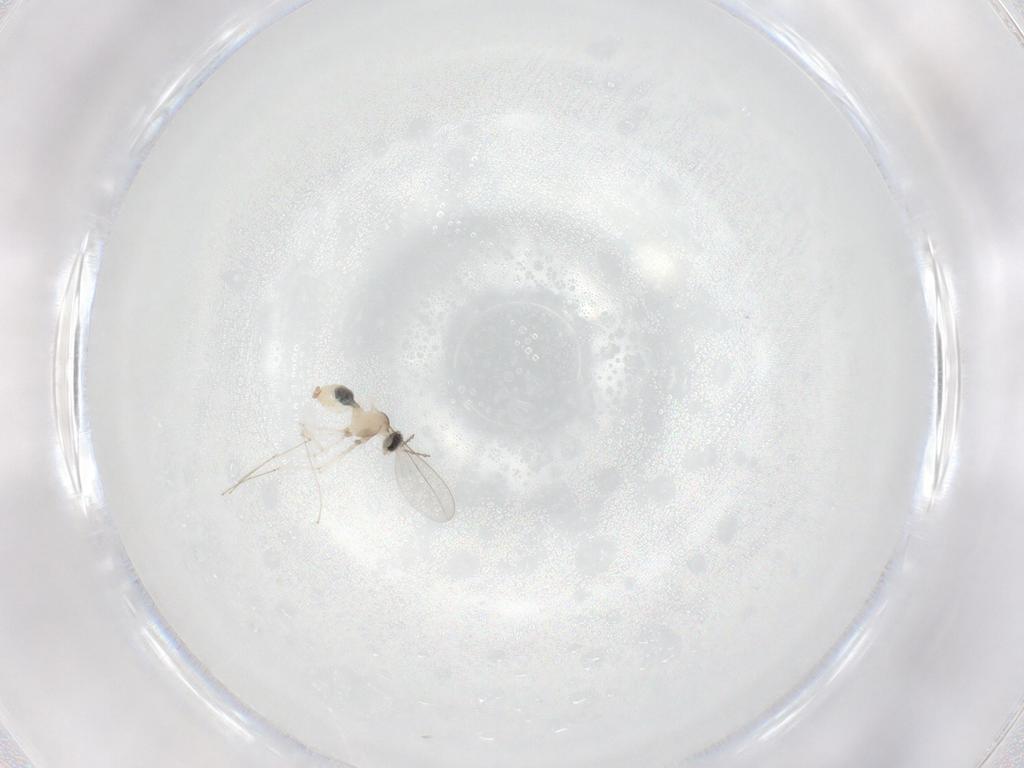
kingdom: Animalia
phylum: Arthropoda
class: Insecta
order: Diptera
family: Cecidomyiidae
